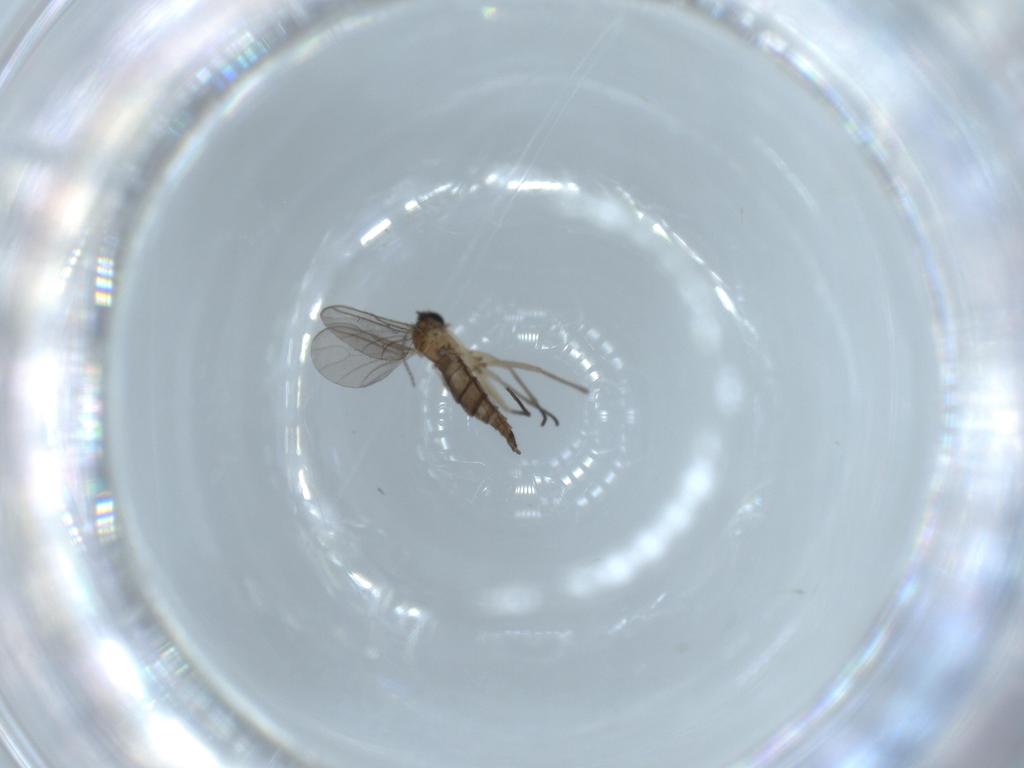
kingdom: Animalia
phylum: Arthropoda
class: Insecta
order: Diptera
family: Sciaridae
